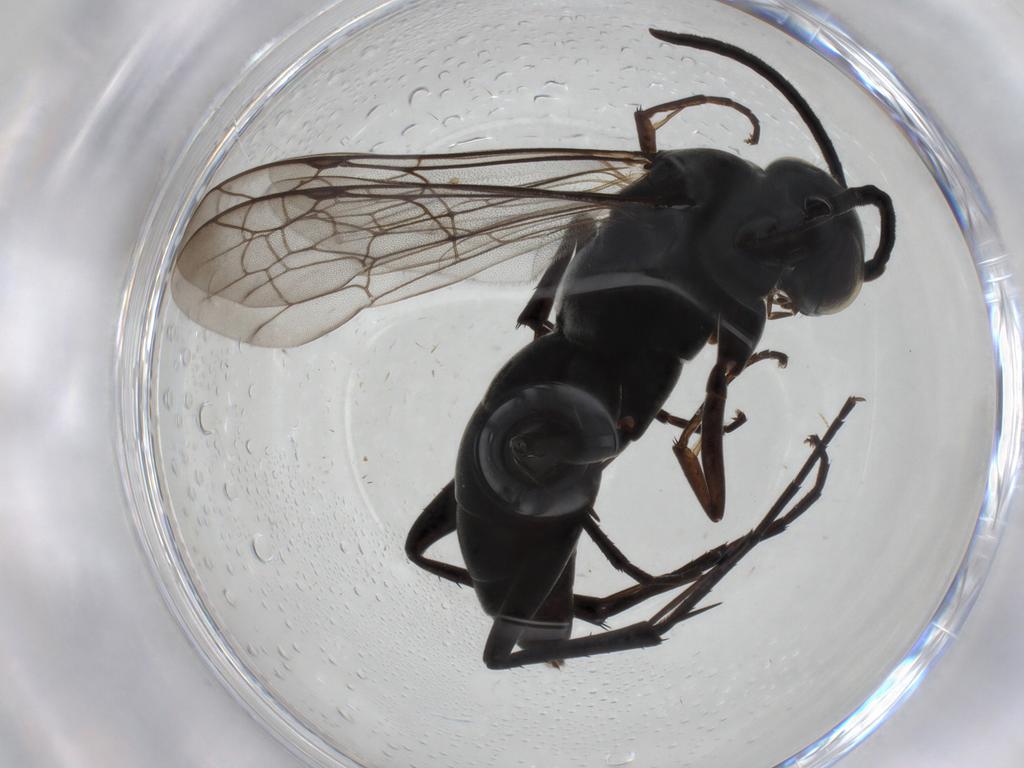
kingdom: Animalia
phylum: Arthropoda
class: Insecta
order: Hymenoptera
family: Pompilidae
